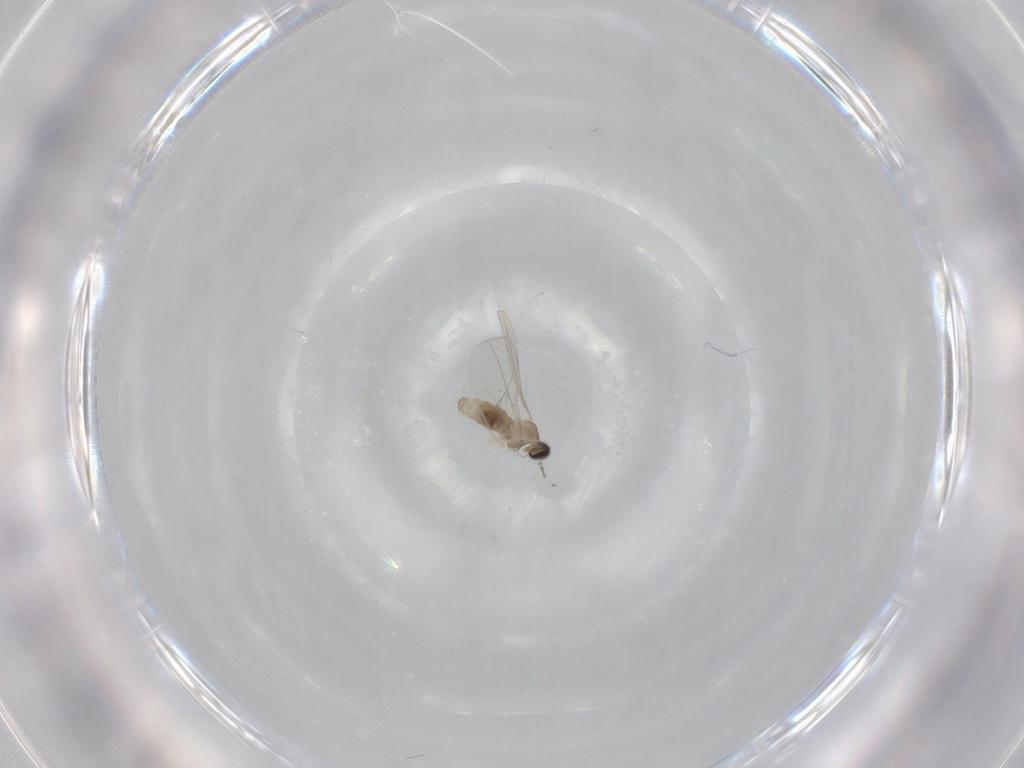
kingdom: Animalia
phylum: Arthropoda
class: Insecta
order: Diptera
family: Cecidomyiidae
